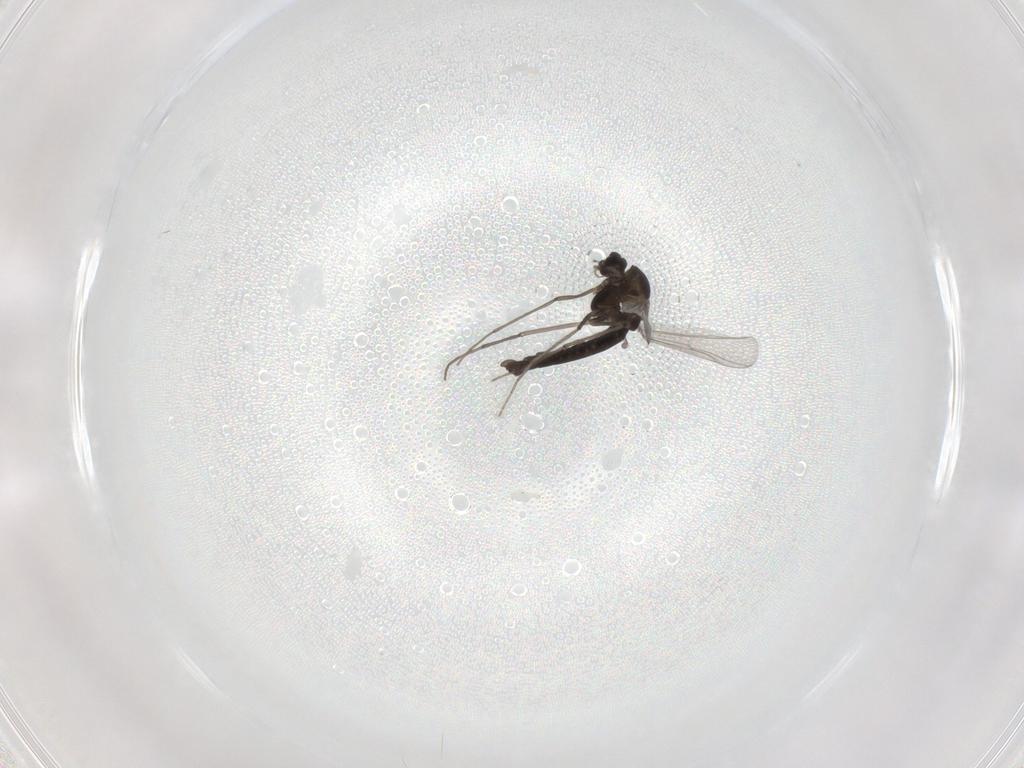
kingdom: Animalia
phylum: Arthropoda
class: Insecta
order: Diptera
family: Chironomidae
